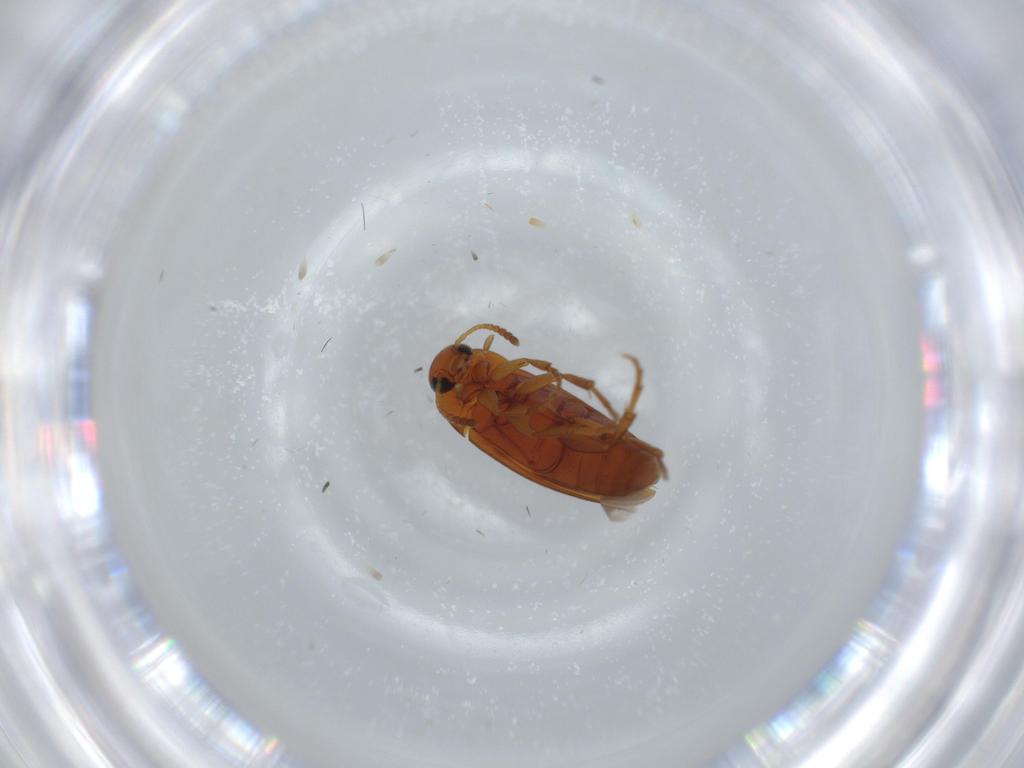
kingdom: Animalia
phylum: Arthropoda
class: Insecta
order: Coleoptera
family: Scraptiidae
